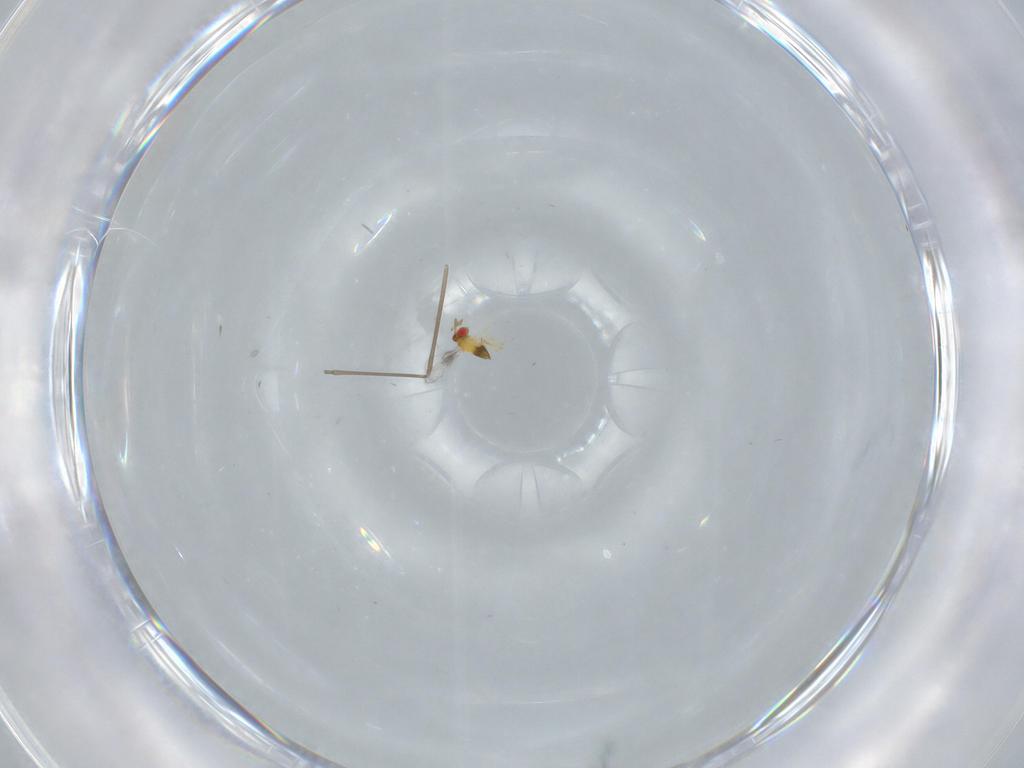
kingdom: Animalia
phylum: Arthropoda
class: Insecta
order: Hymenoptera
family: Trichogrammatidae
